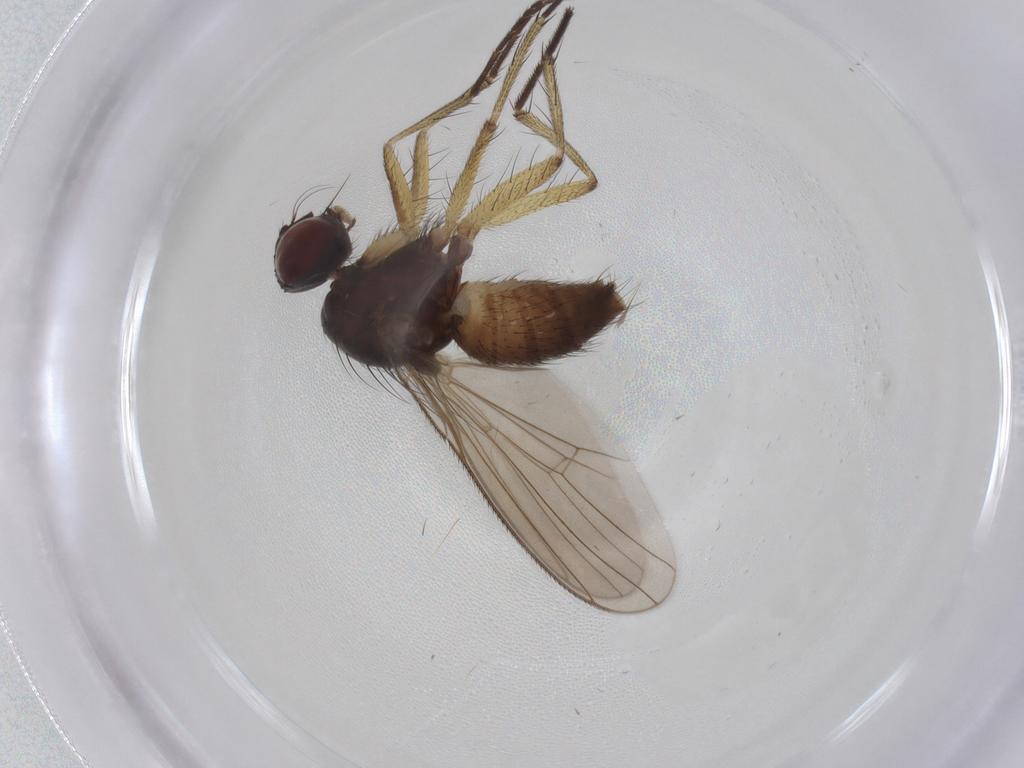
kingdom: Animalia
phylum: Arthropoda
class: Insecta
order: Diptera
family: Muscidae
